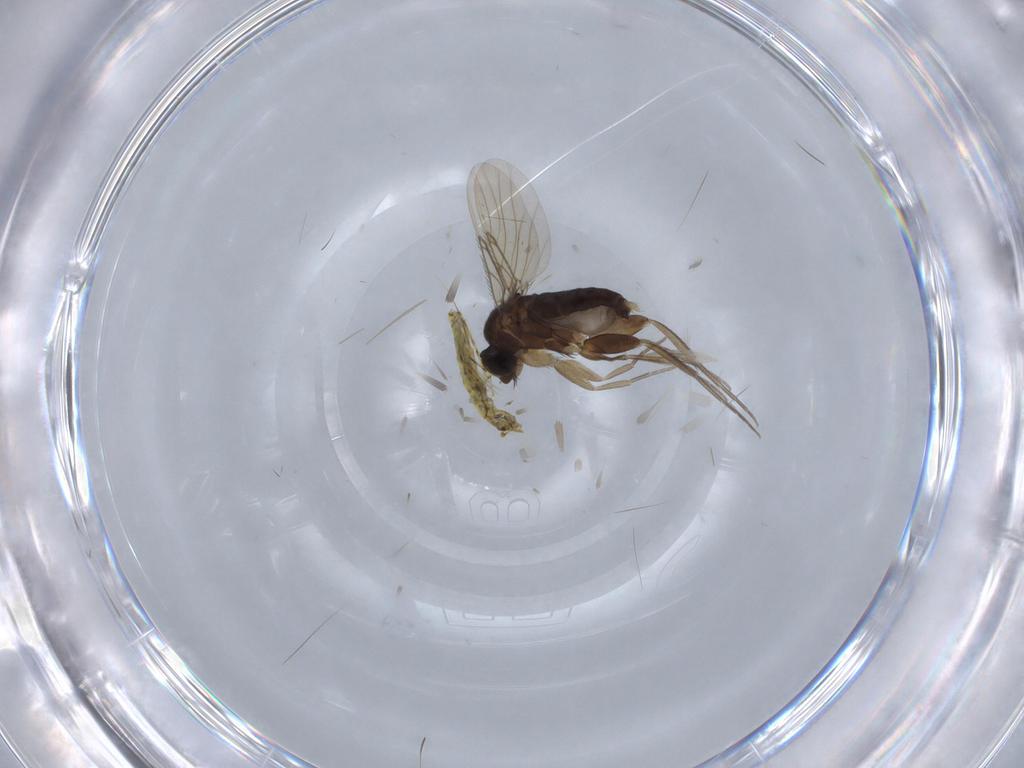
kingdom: Animalia
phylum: Arthropoda
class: Insecta
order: Diptera
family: Phoridae
